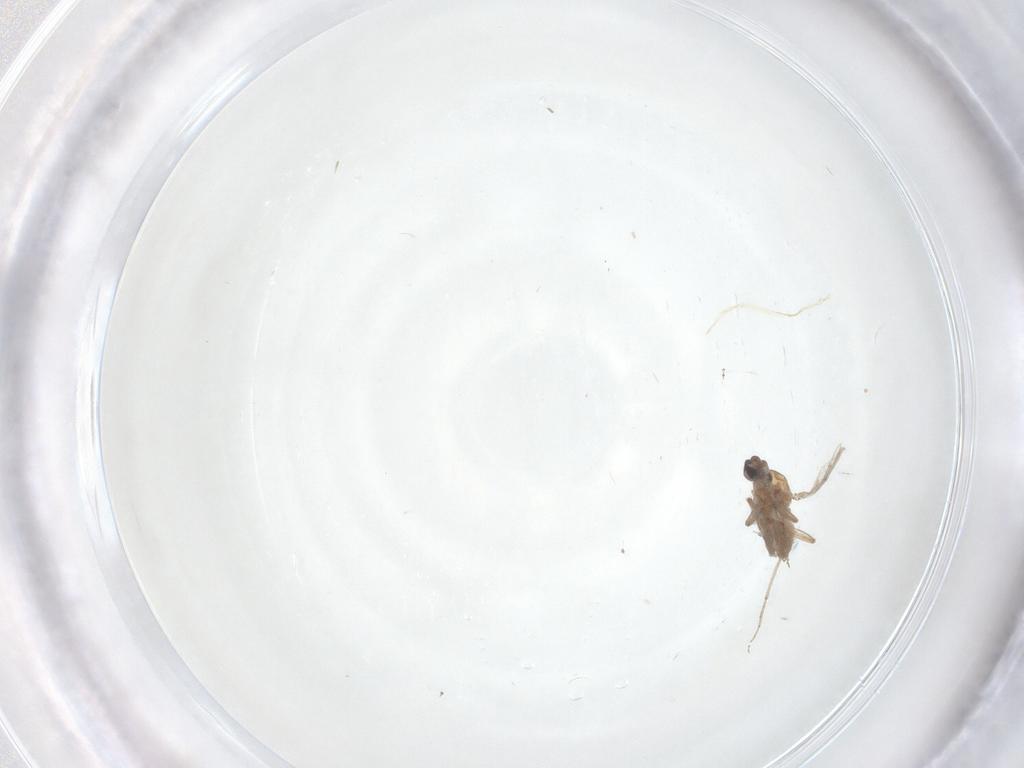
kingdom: Animalia
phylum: Arthropoda
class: Insecta
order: Diptera
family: Cecidomyiidae
